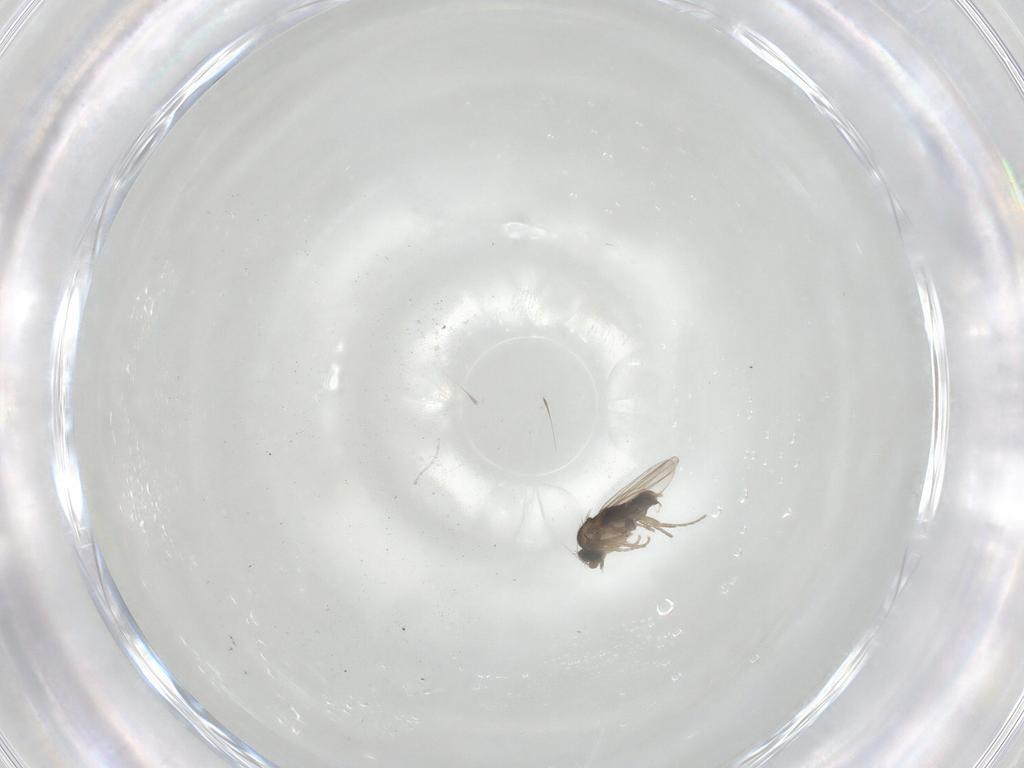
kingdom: Animalia
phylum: Arthropoda
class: Insecta
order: Diptera
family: Phoridae
